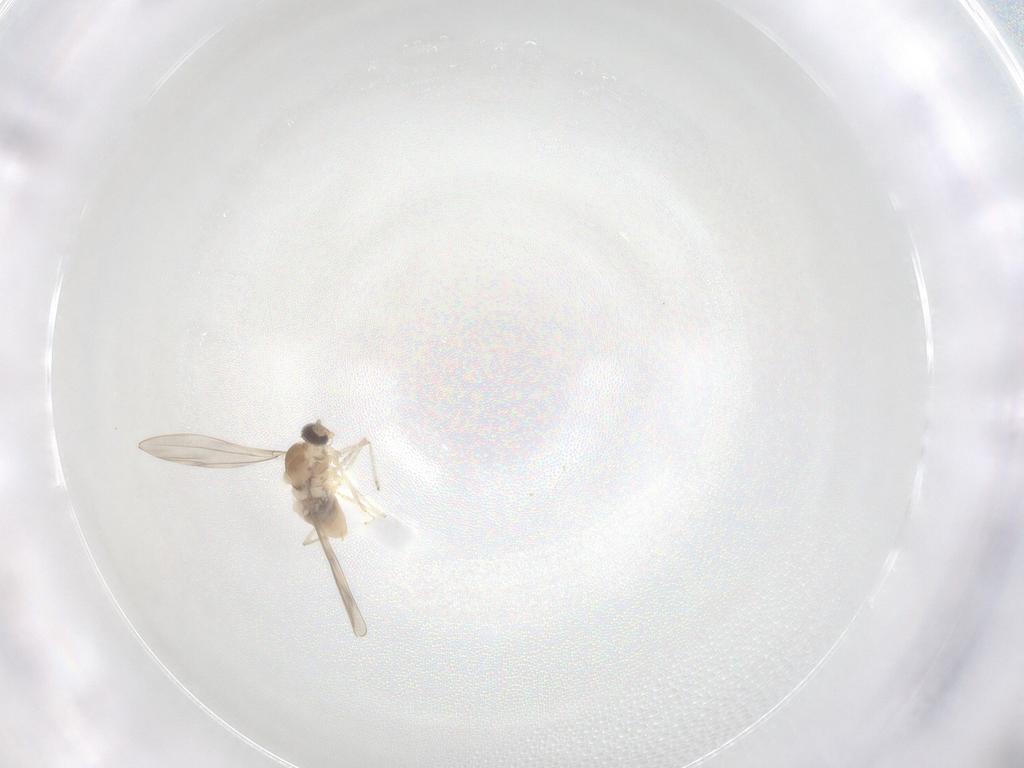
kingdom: Animalia
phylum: Arthropoda
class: Insecta
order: Diptera
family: Cecidomyiidae
